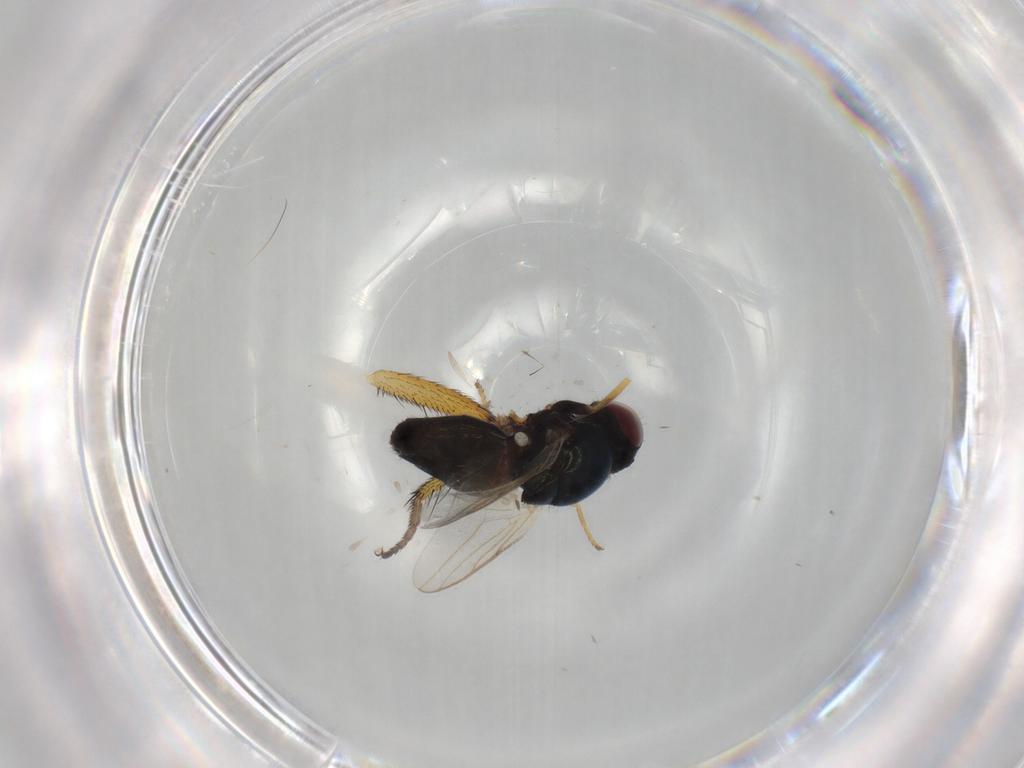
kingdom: Animalia
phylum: Arthropoda
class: Insecta
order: Diptera
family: Chloropidae
